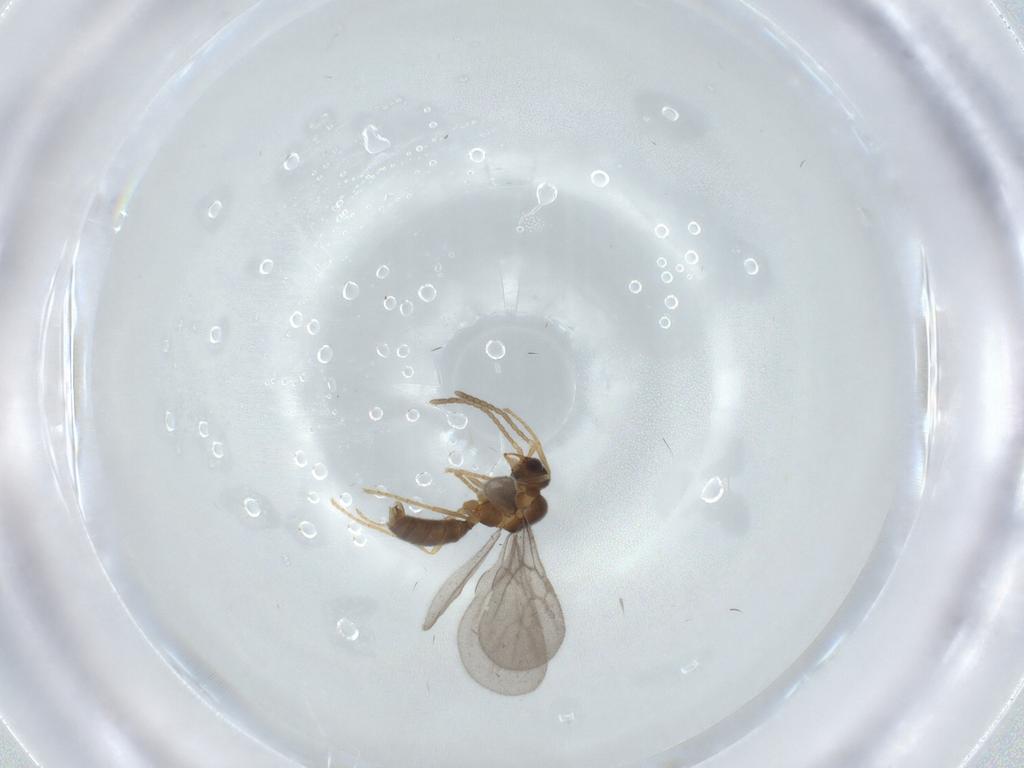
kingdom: Animalia
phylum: Arthropoda
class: Insecta
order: Hymenoptera
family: Formicidae
